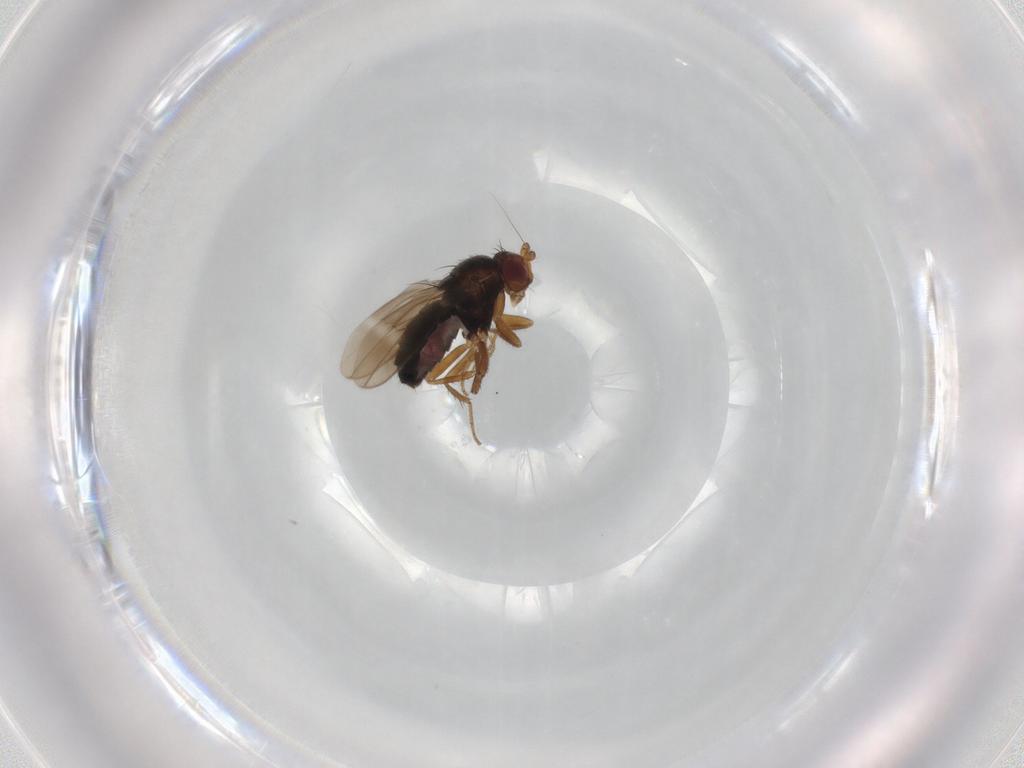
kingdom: Animalia
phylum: Arthropoda
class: Insecta
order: Diptera
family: Sphaeroceridae
